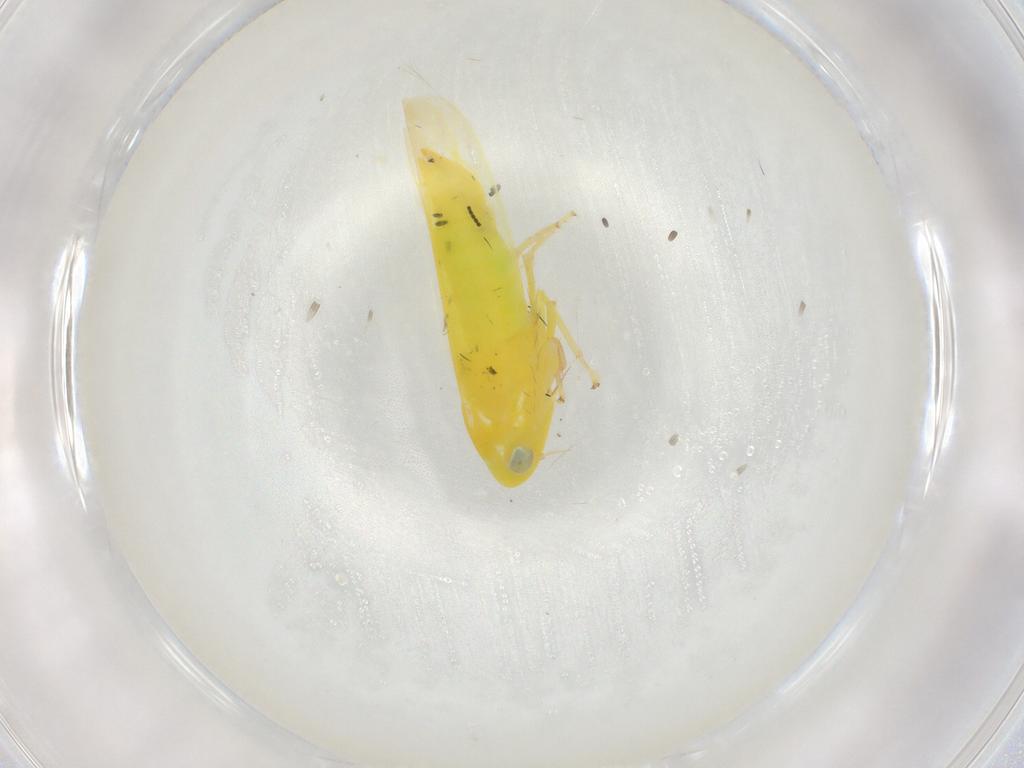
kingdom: Animalia
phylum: Arthropoda
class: Insecta
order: Hemiptera
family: Cicadellidae
